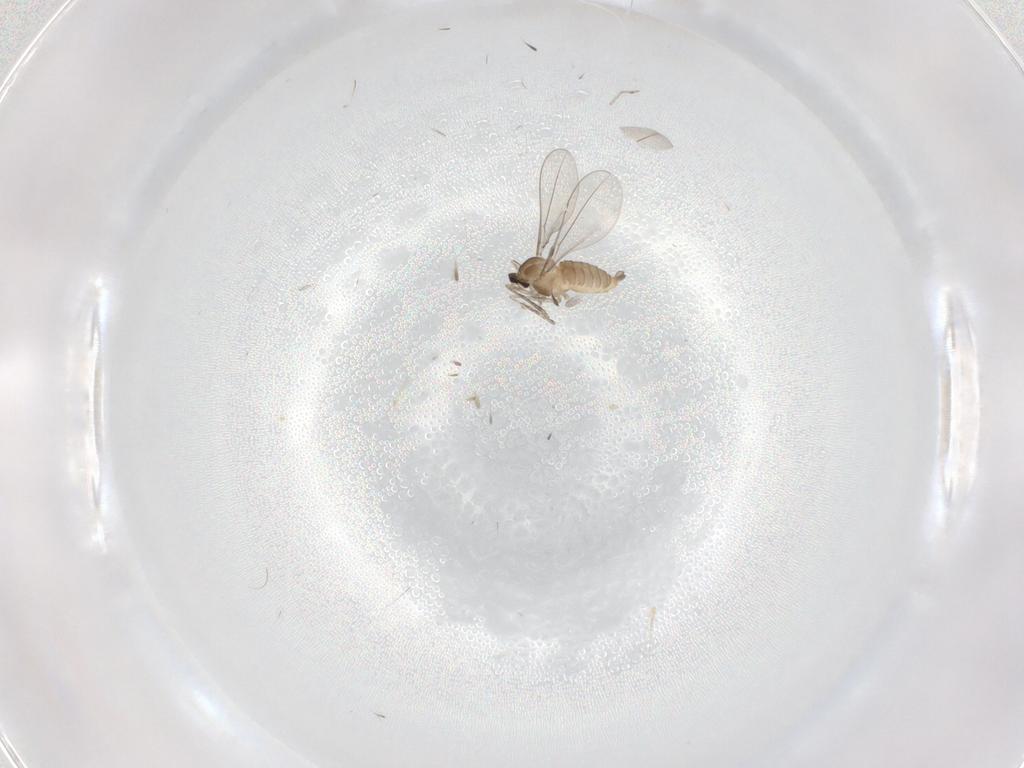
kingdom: Animalia
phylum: Arthropoda
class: Insecta
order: Diptera
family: Cecidomyiidae
